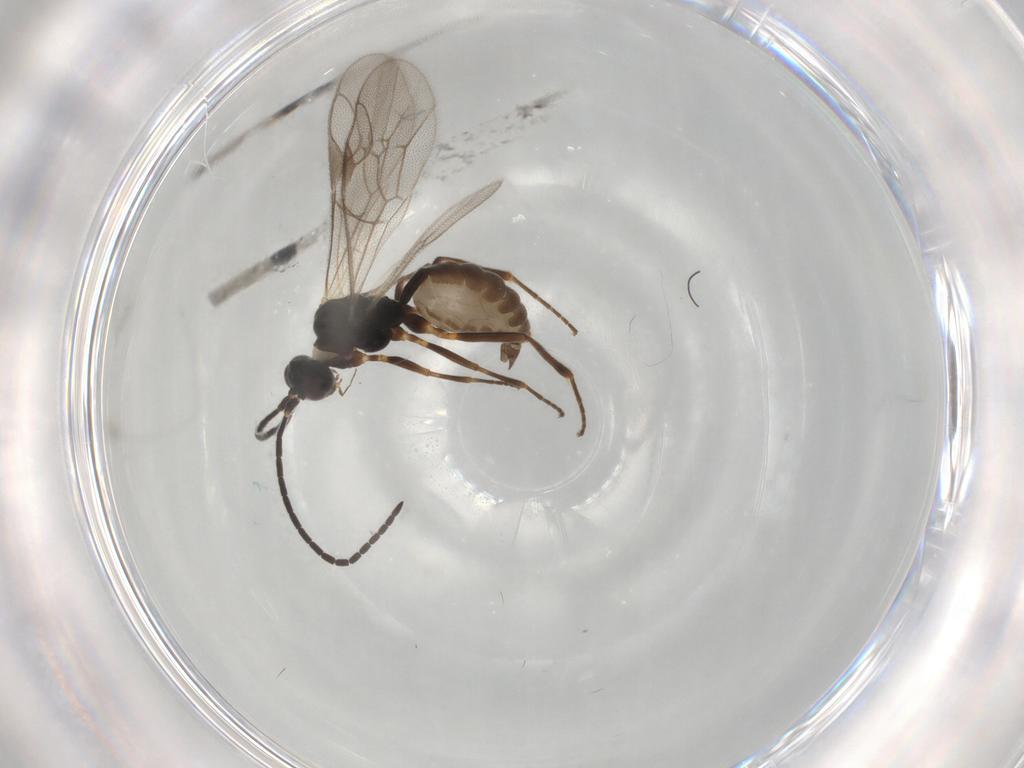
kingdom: Animalia
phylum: Arthropoda
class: Insecta
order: Hymenoptera
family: Ichneumonidae
